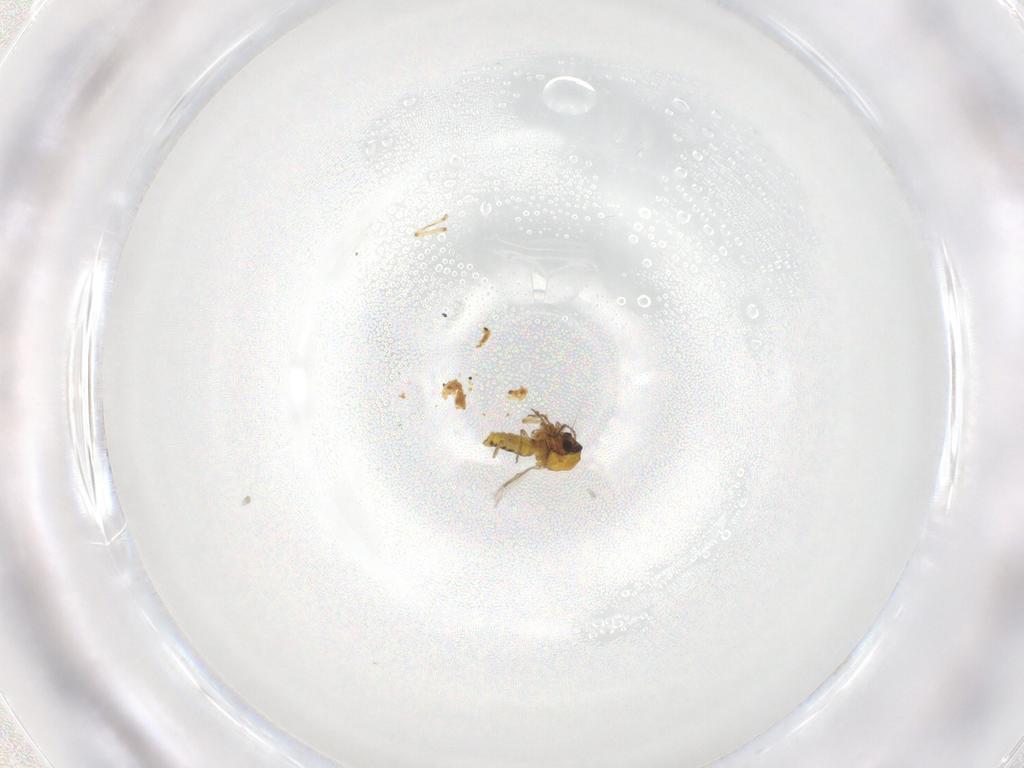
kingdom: Animalia
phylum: Arthropoda
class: Insecta
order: Diptera
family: Ceratopogonidae
